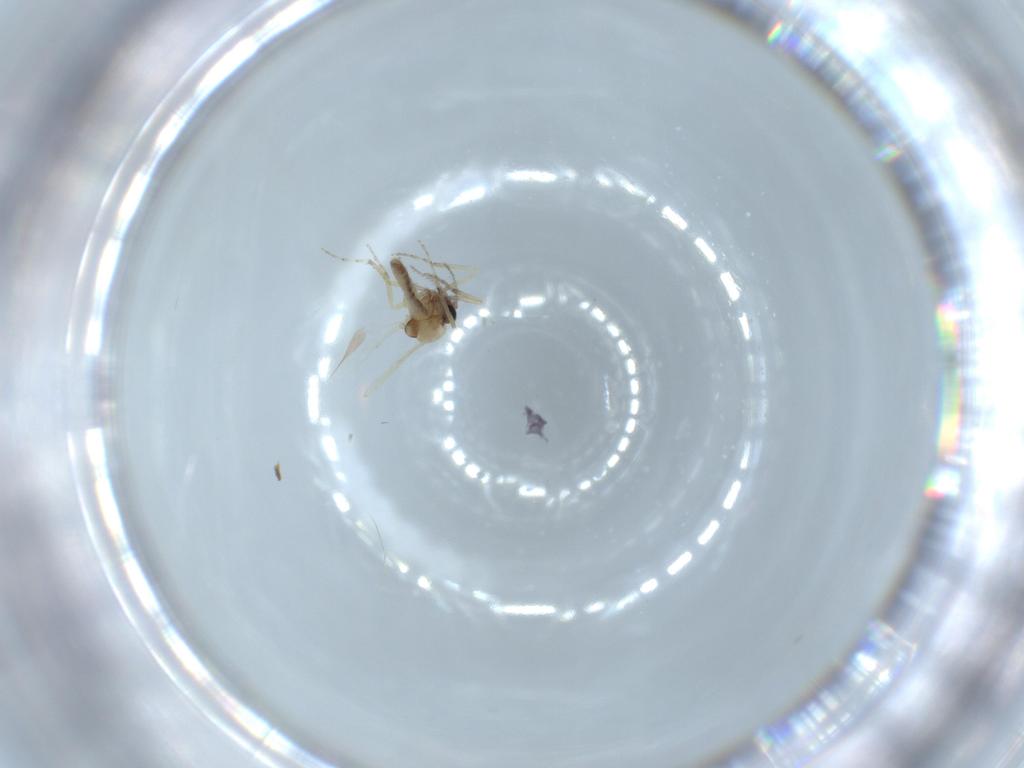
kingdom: Animalia
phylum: Arthropoda
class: Insecta
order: Diptera
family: Ceratopogonidae
